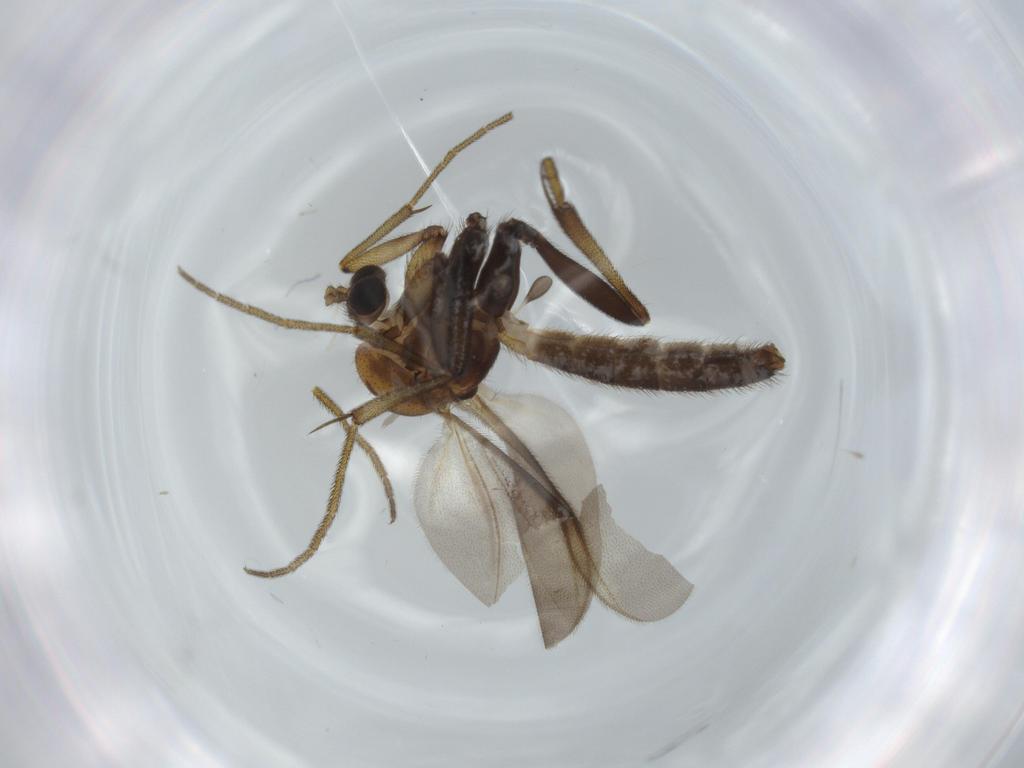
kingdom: Animalia
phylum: Arthropoda
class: Insecta
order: Diptera
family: Mycetophilidae
